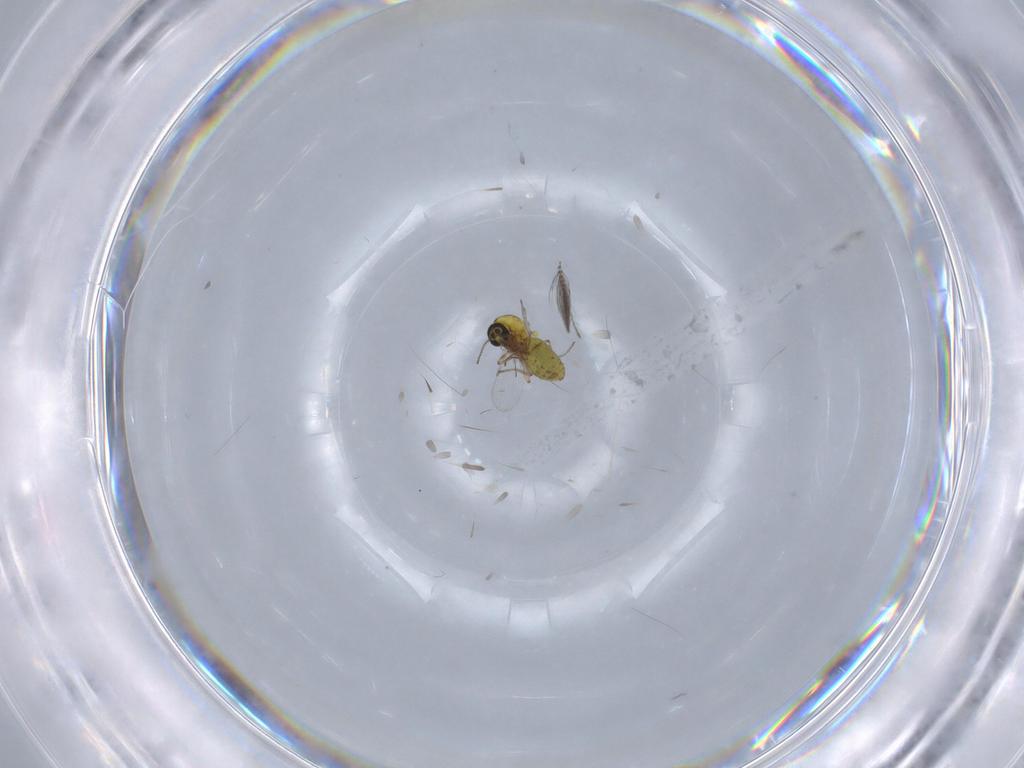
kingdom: Animalia
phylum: Arthropoda
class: Insecta
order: Diptera
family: Ceratopogonidae
